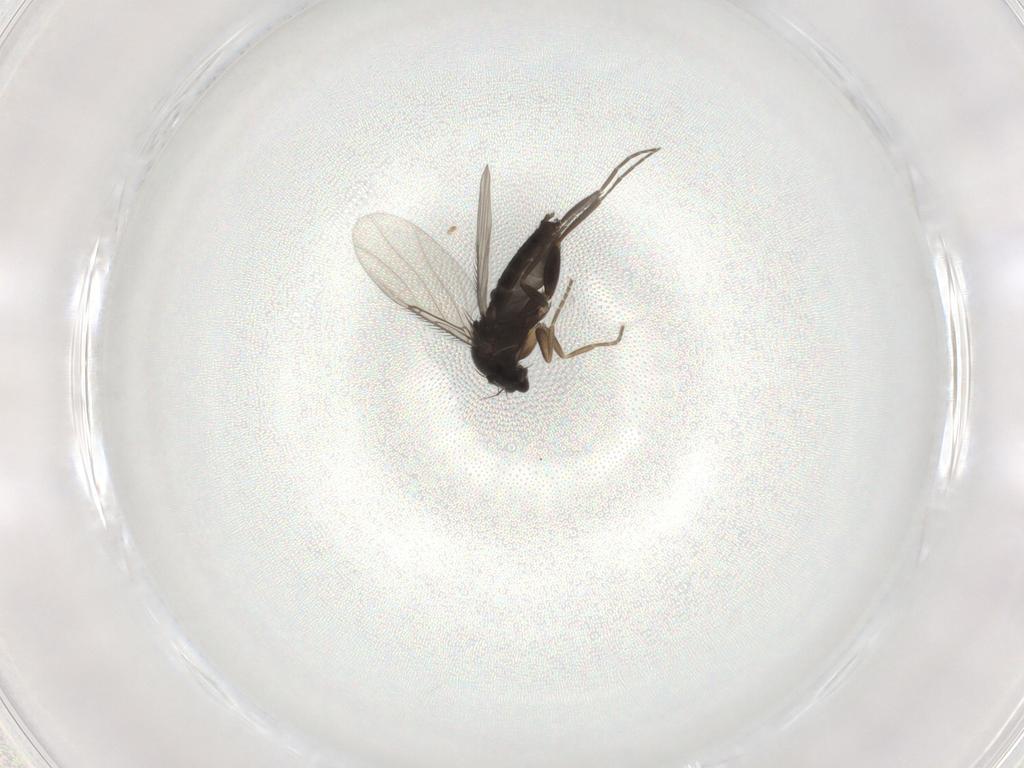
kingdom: Animalia
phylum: Arthropoda
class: Insecta
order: Diptera
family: Phoridae
